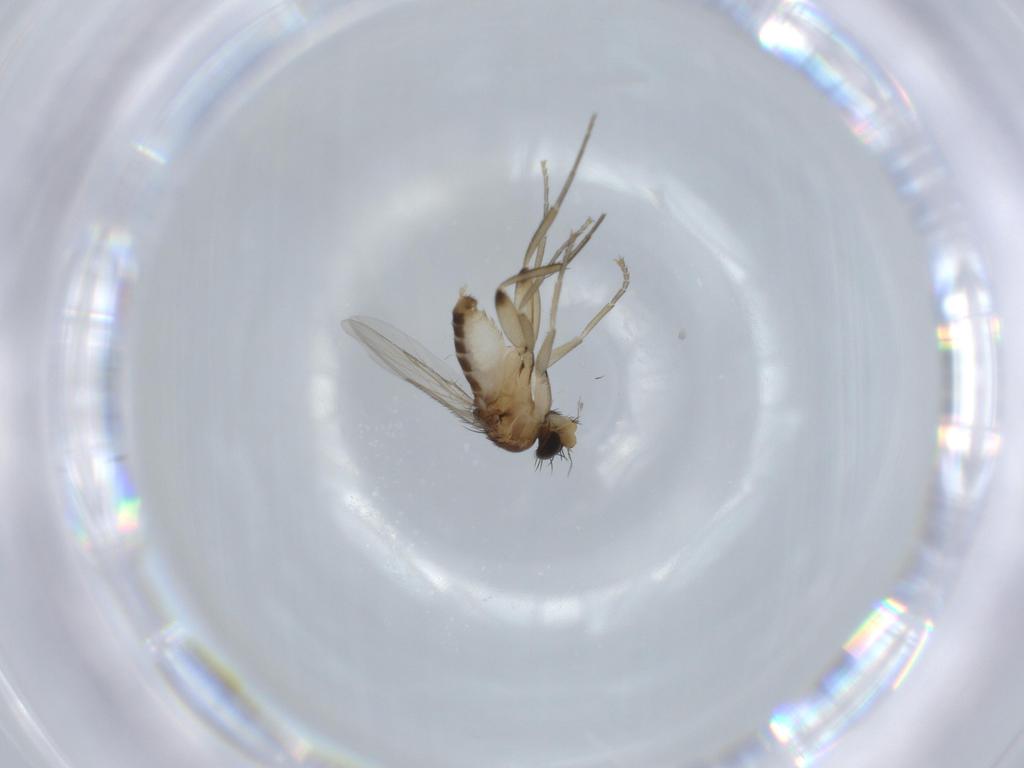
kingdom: Animalia
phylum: Arthropoda
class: Insecta
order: Diptera
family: Phoridae
